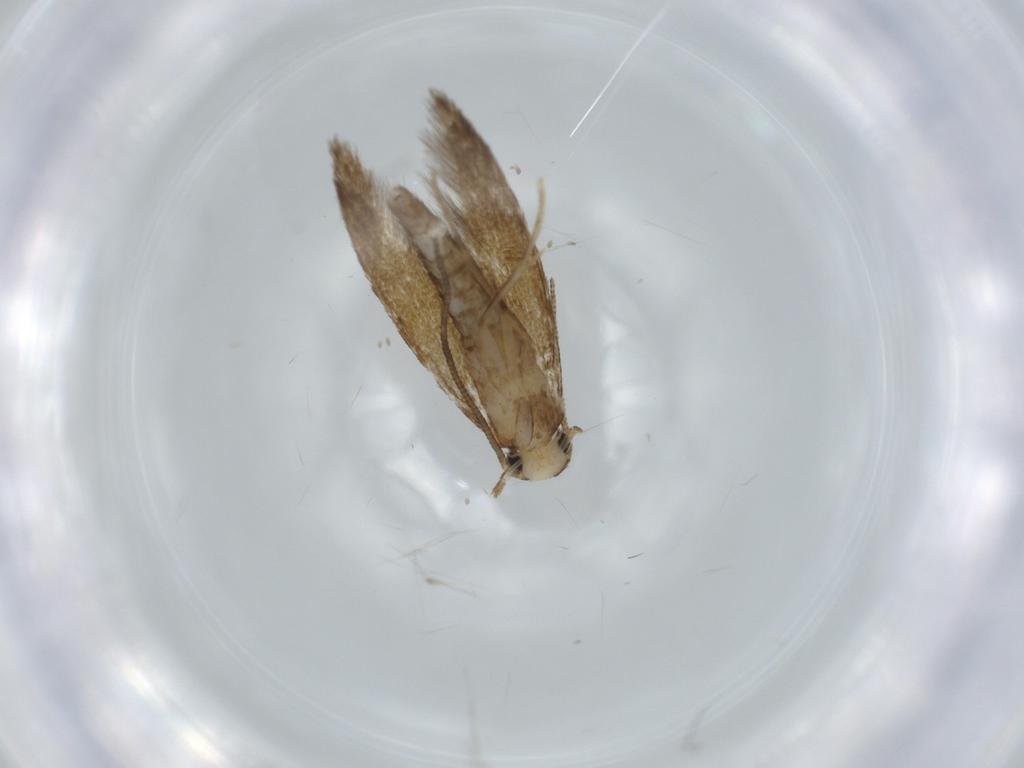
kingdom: Animalia
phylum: Arthropoda
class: Insecta
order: Lepidoptera
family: Tineidae
